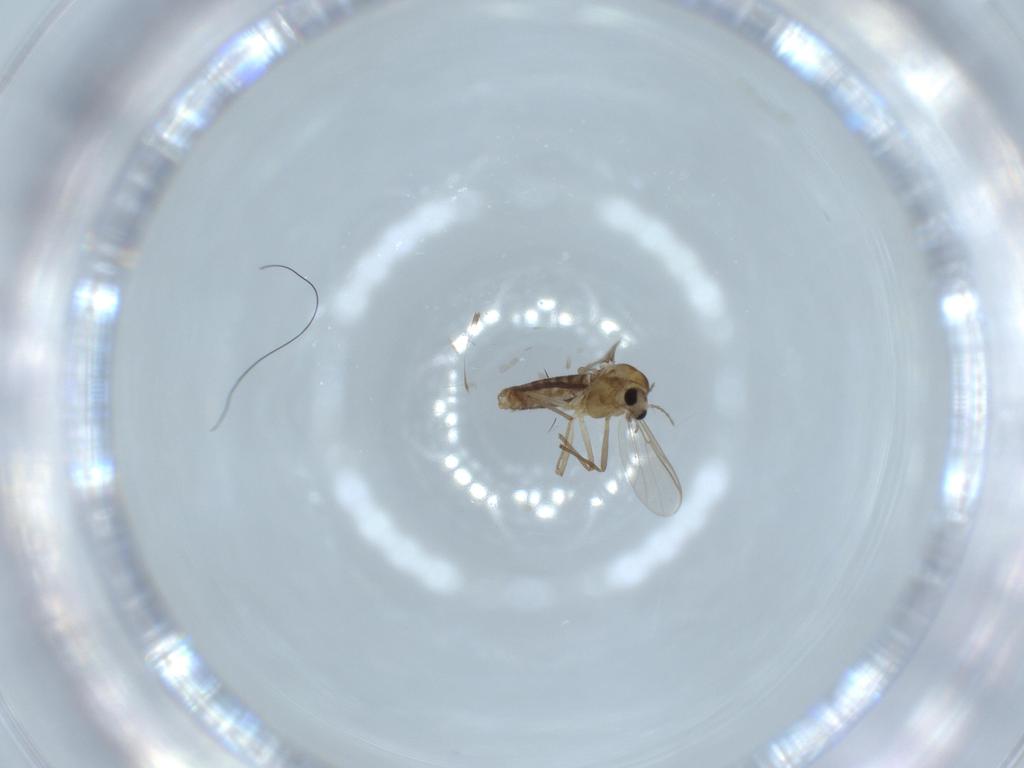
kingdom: Animalia
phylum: Arthropoda
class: Insecta
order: Diptera
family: Chironomidae
